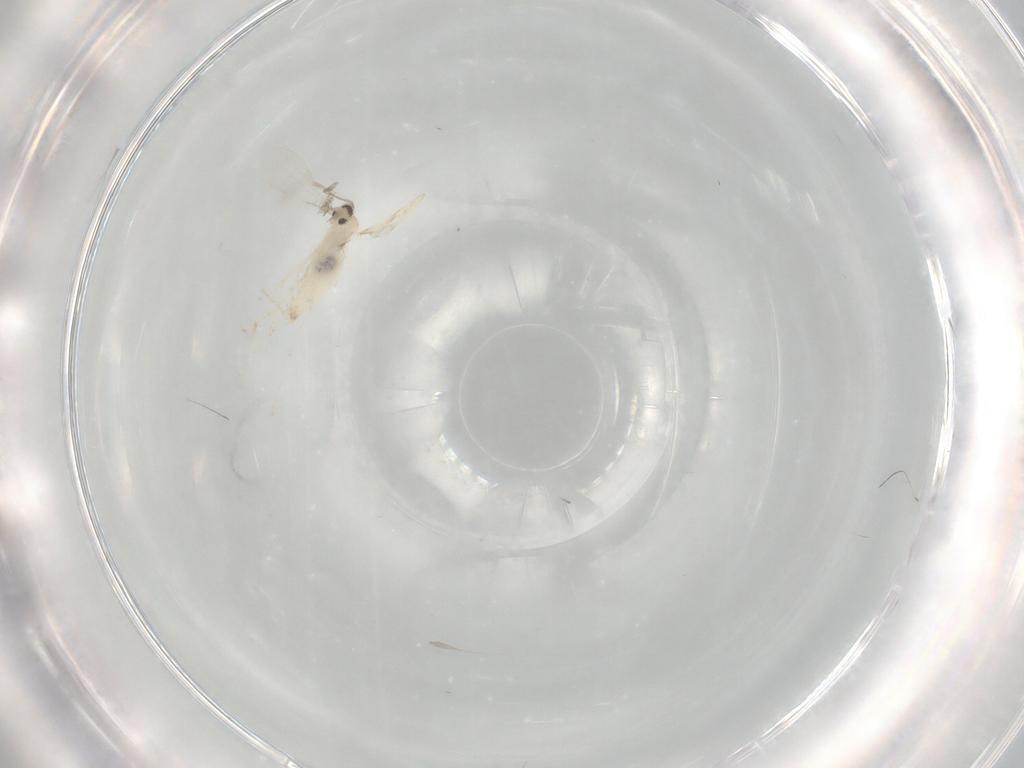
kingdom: Animalia
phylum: Arthropoda
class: Insecta
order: Diptera
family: Cecidomyiidae
